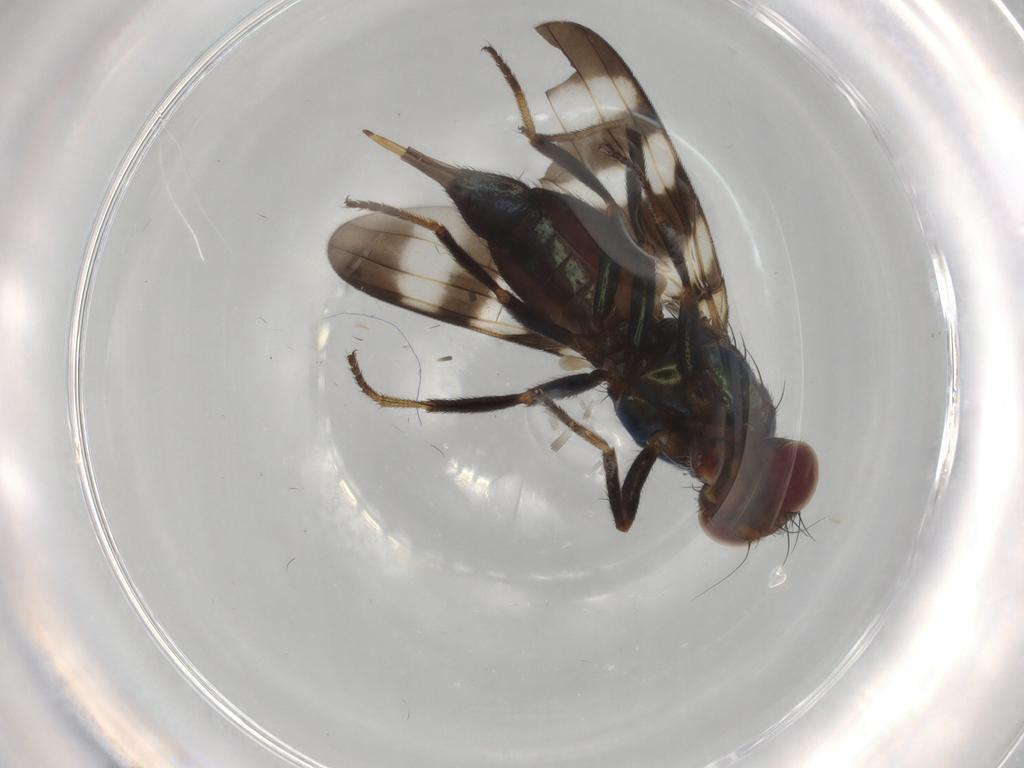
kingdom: Animalia
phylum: Arthropoda
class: Insecta
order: Diptera
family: Ulidiidae
